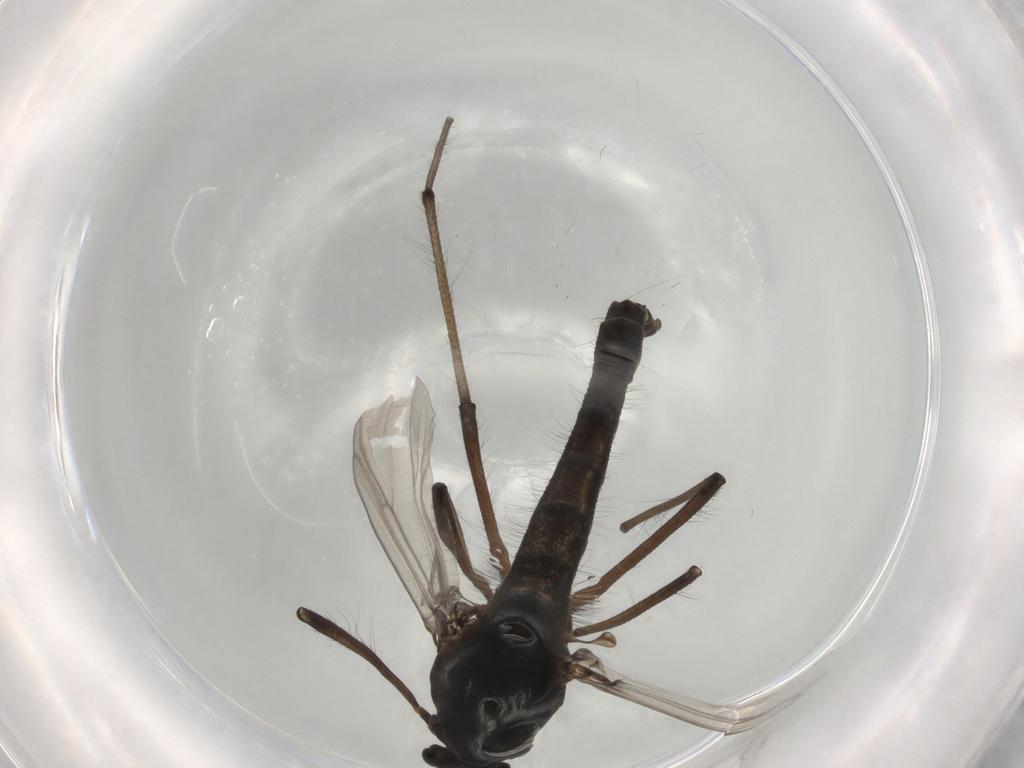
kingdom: Animalia
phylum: Arthropoda
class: Insecta
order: Diptera
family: Chironomidae
